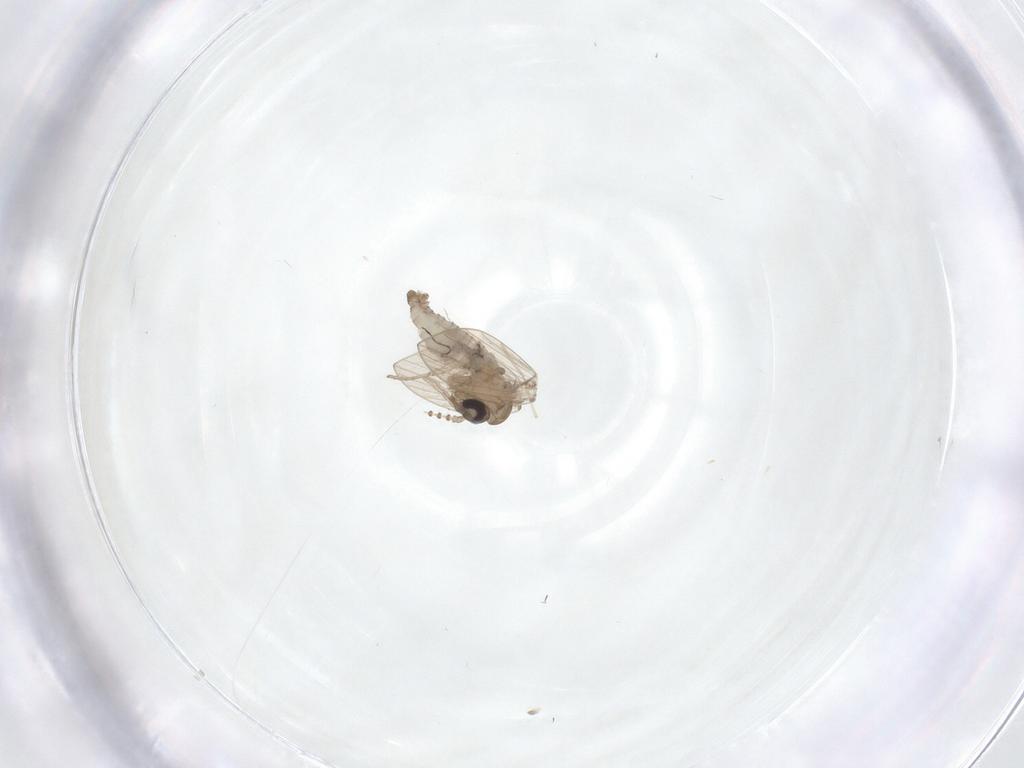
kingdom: Animalia
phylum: Arthropoda
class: Insecta
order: Diptera
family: Psychodidae
